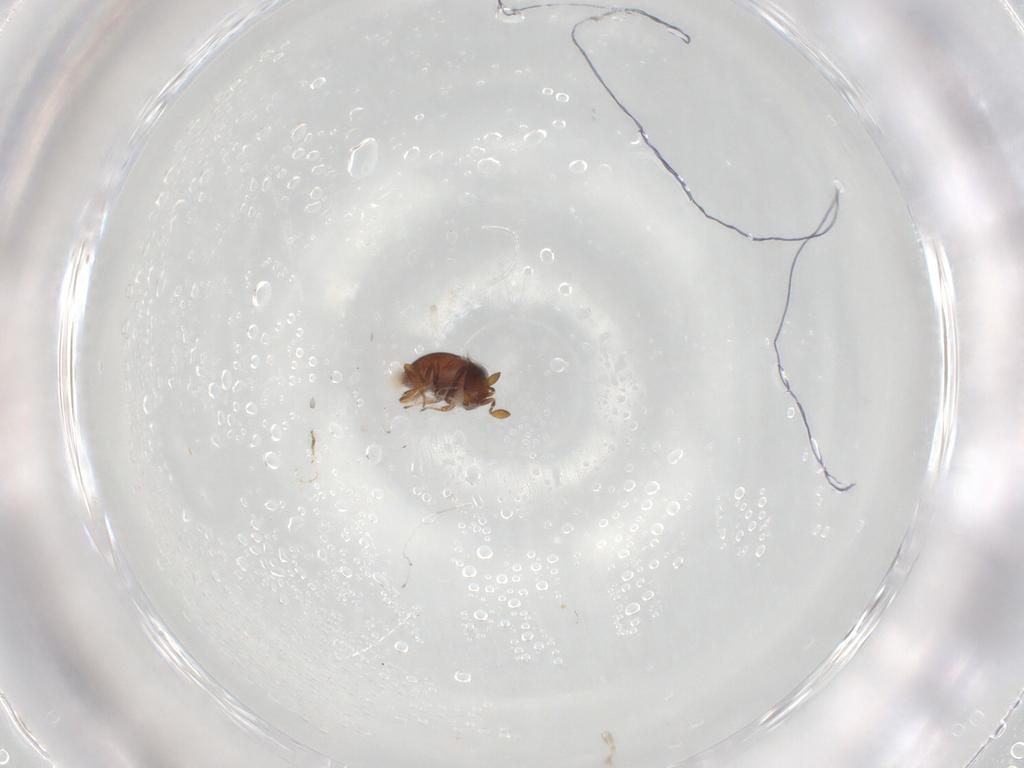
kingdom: Animalia
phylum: Arthropoda
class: Insecta
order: Hymenoptera
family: Scelionidae
